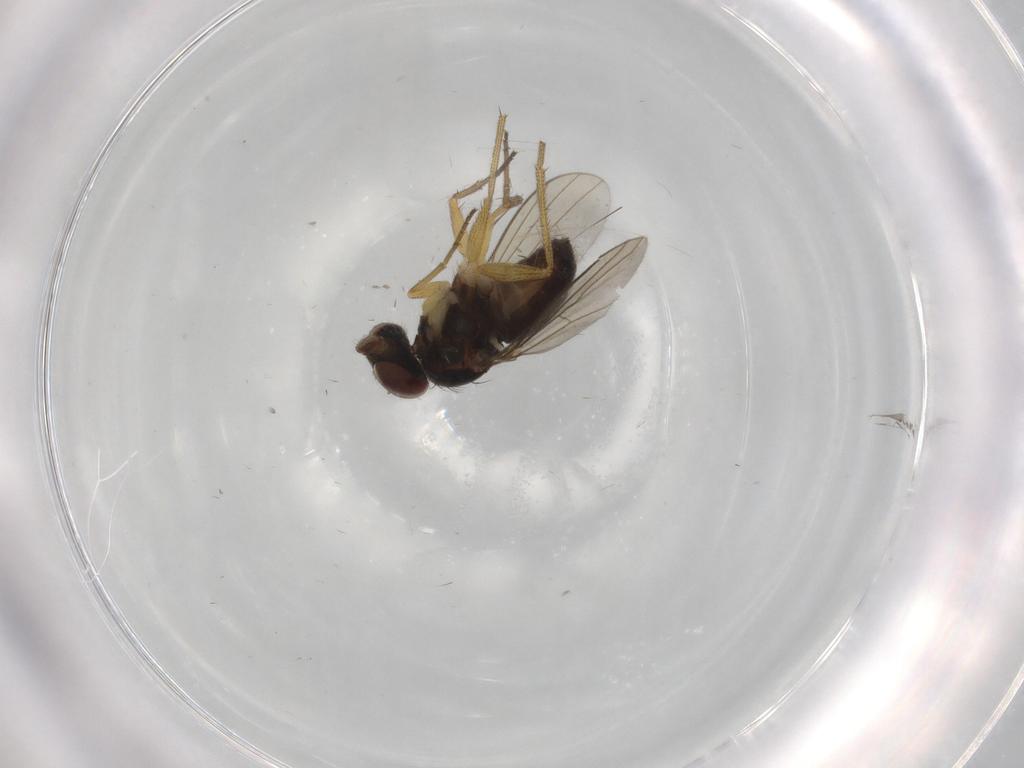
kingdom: Animalia
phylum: Arthropoda
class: Insecta
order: Diptera
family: Dolichopodidae
